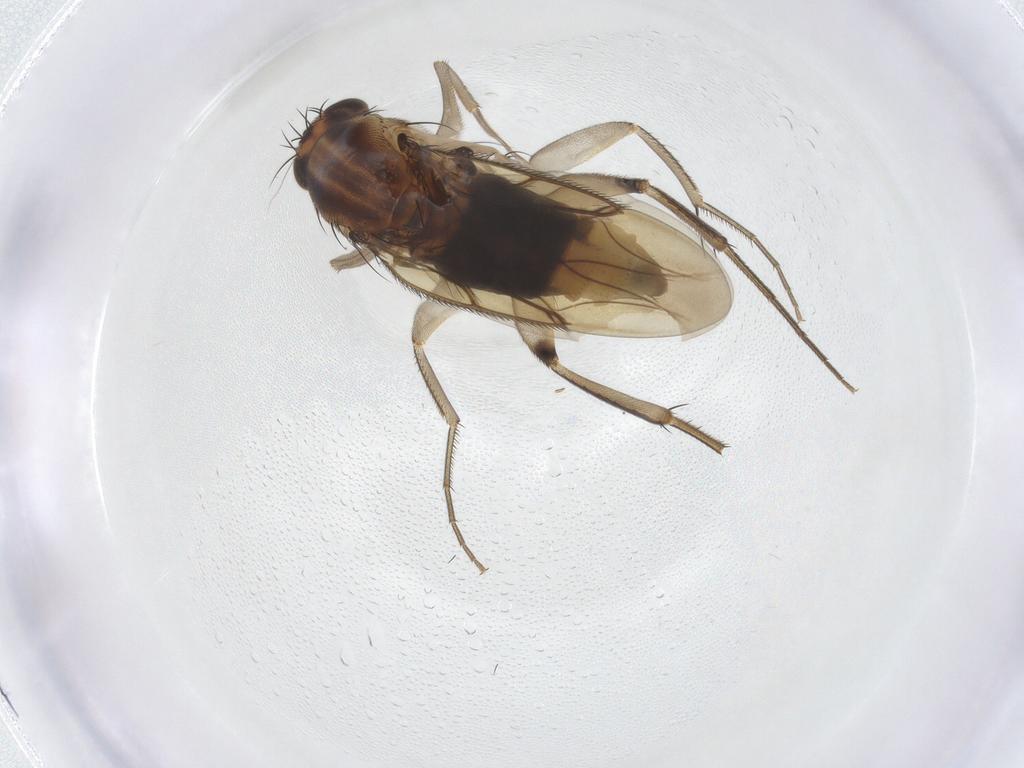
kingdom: Animalia
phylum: Arthropoda
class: Insecta
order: Diptera
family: Phoridae
